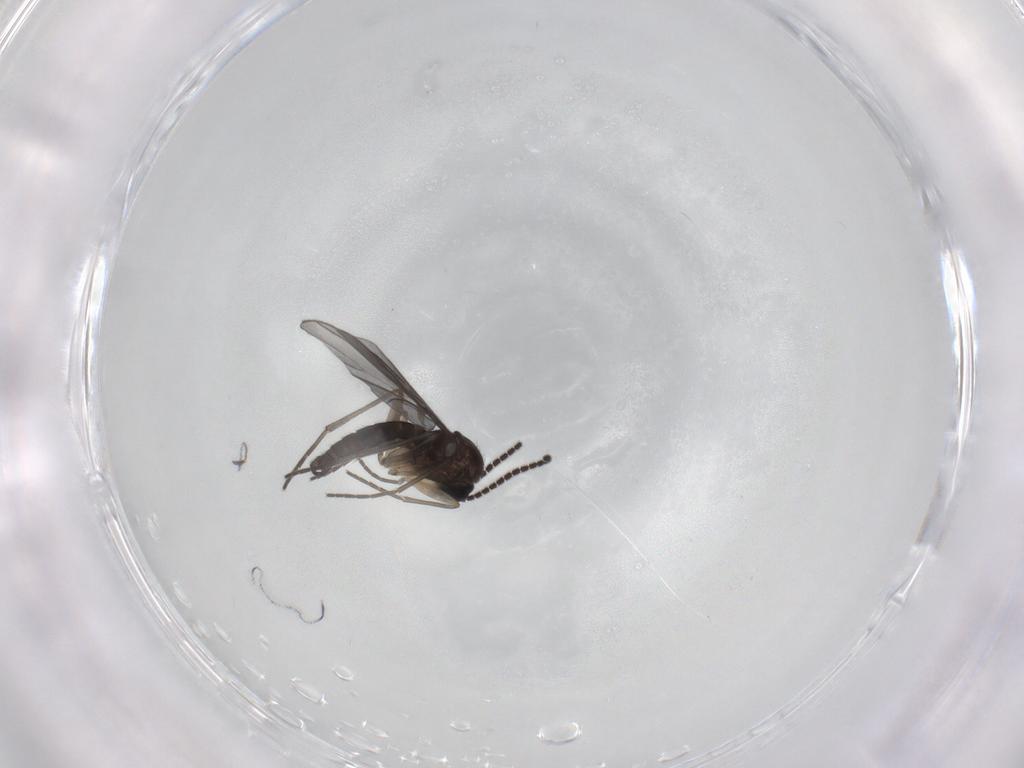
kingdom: Animalia
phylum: Arthropoda
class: Insecta
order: Diptera
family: Sciaridae
